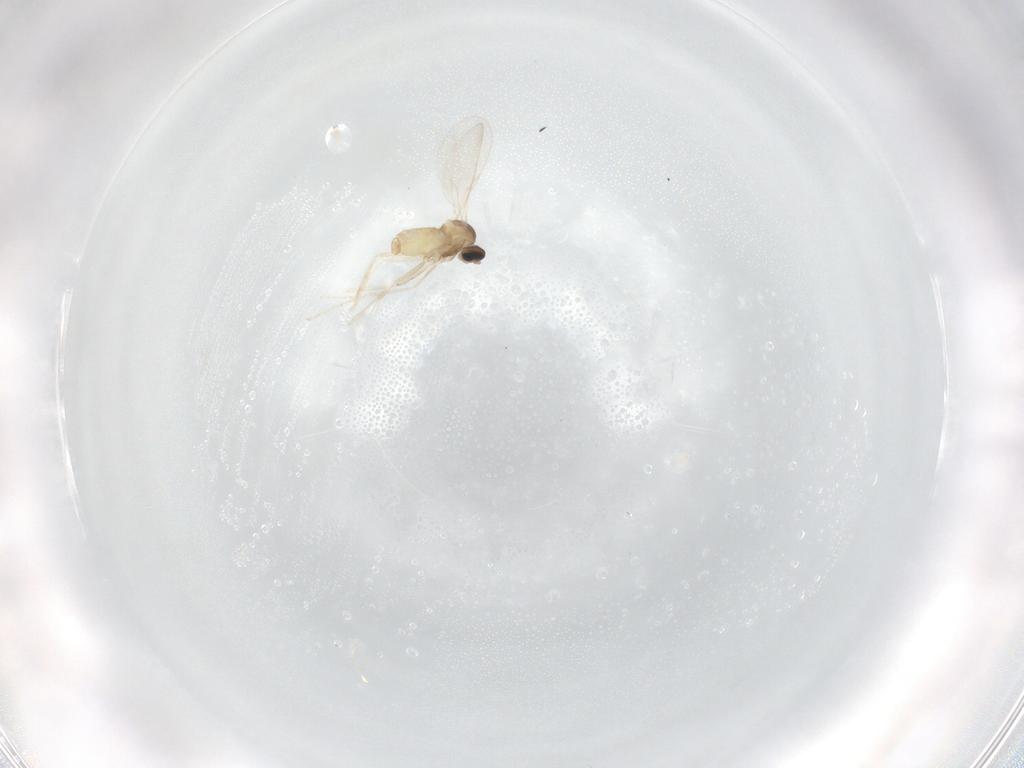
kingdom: Animalia
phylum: Arthropoda
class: Insecta
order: Diptera
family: Cecidomyiidae
